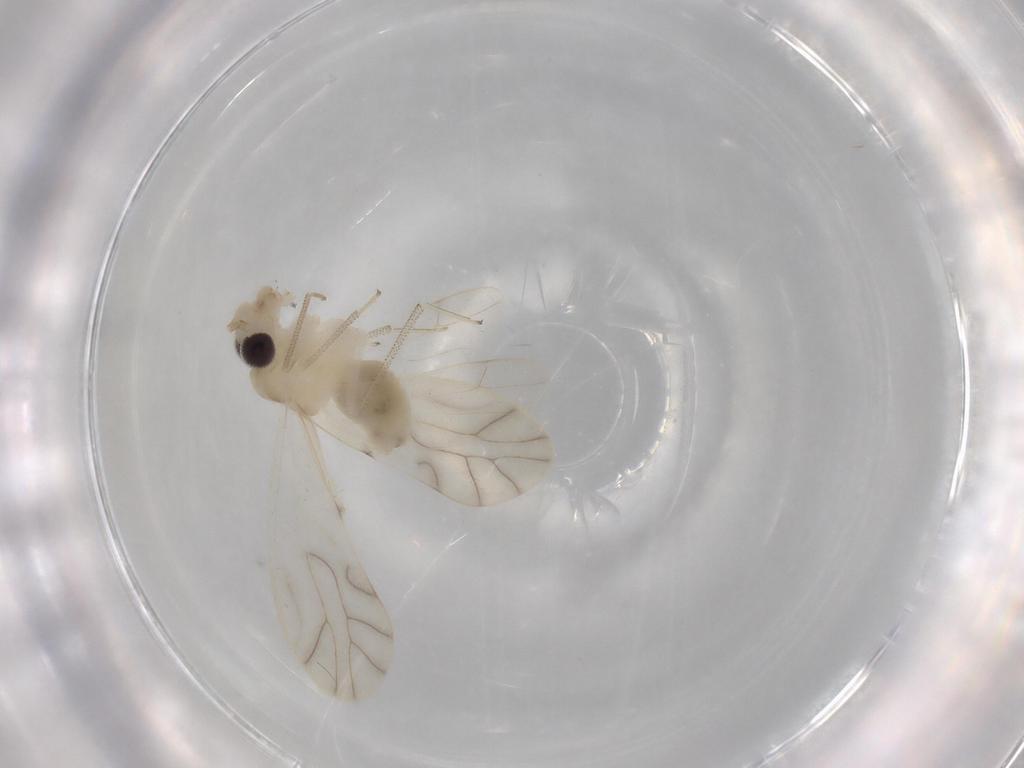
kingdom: Animalia
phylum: Arthropoda
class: Insecta
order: Psocodea
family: Caeciliusidae
